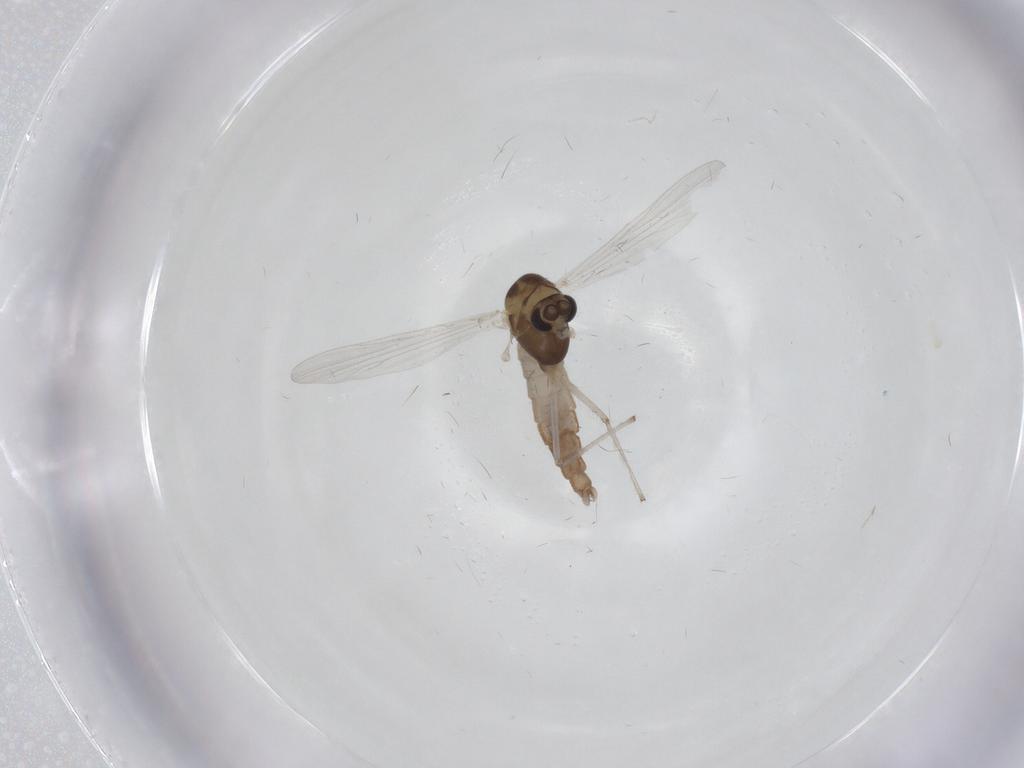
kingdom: Animalia
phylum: Arthropoda
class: Insecta
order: Diptera
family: Chironomidae
